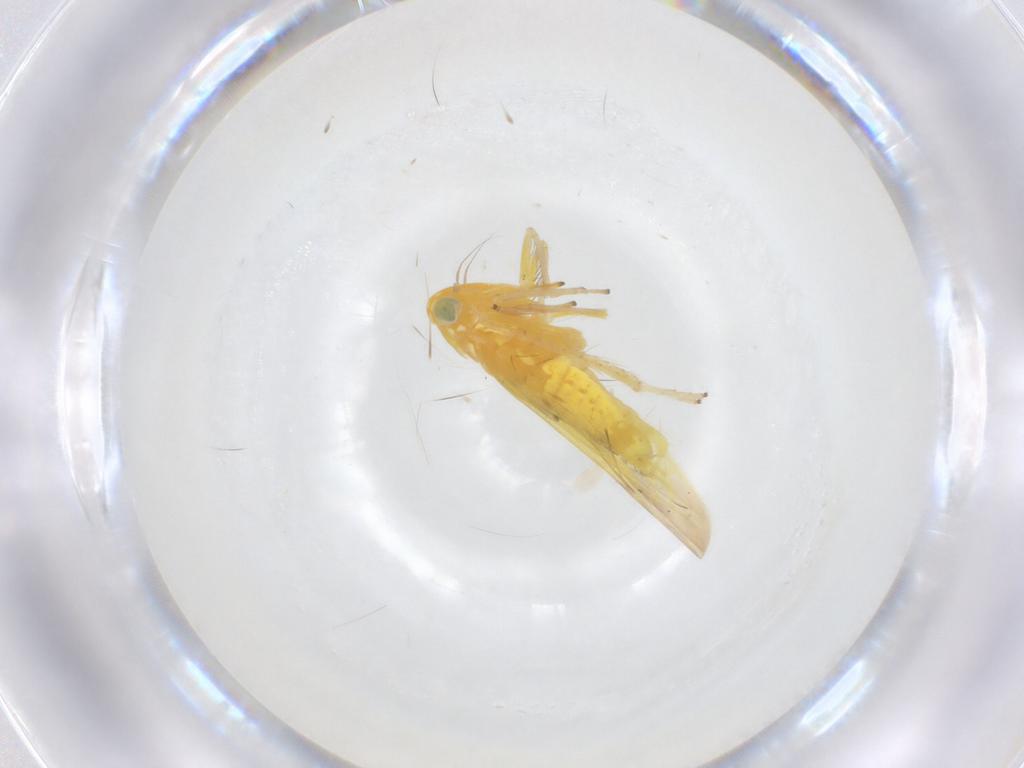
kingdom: Animalia
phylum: Arthropoda
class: Insecta
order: Hemiptera
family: Cicadellidae
